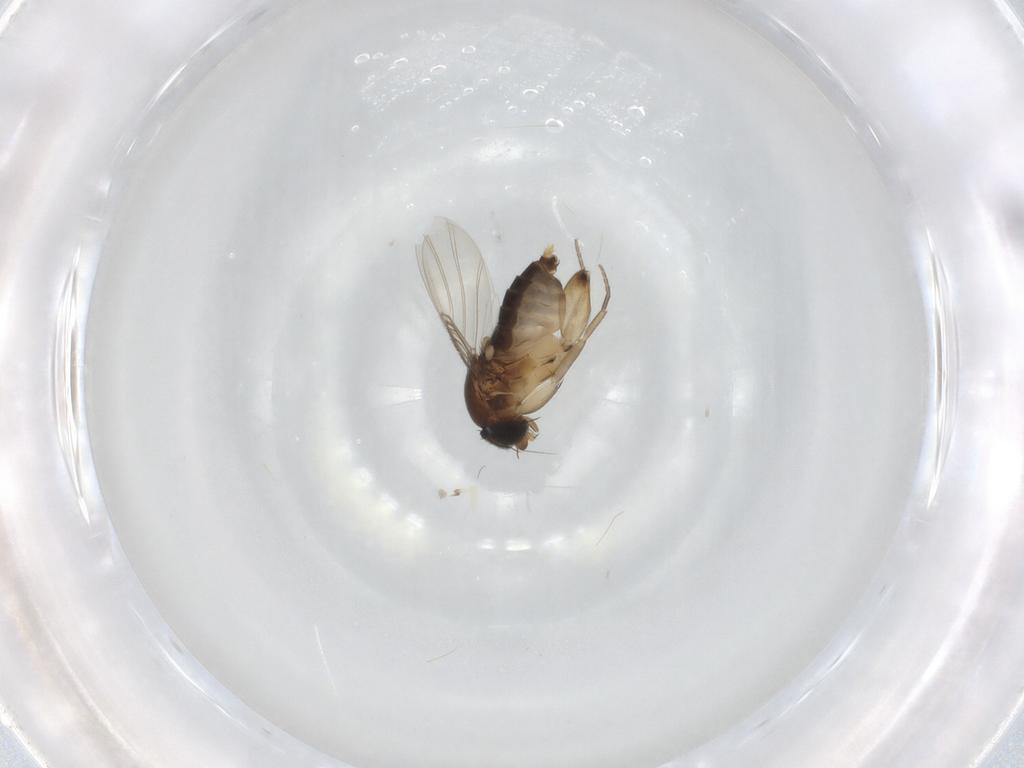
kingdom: Animalia
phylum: Arthropoda
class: Insecta
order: Diptera
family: Phoridae
